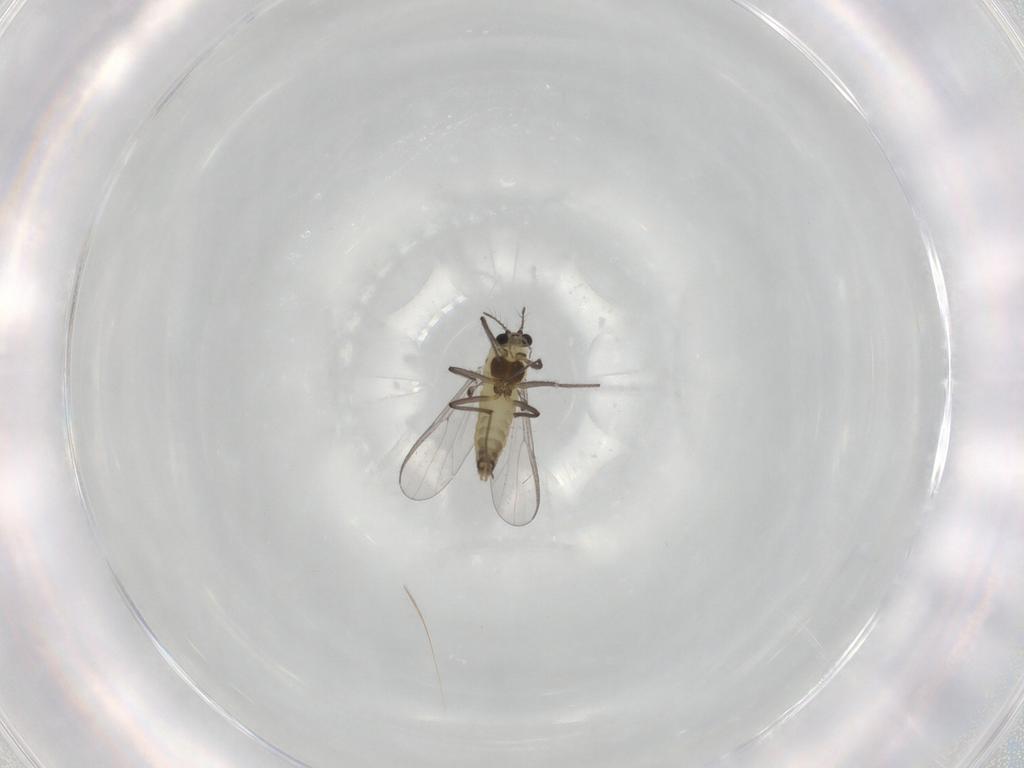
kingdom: Animalia
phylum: Arthropoda
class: Insecta
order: Diptera
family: Chironomidae
